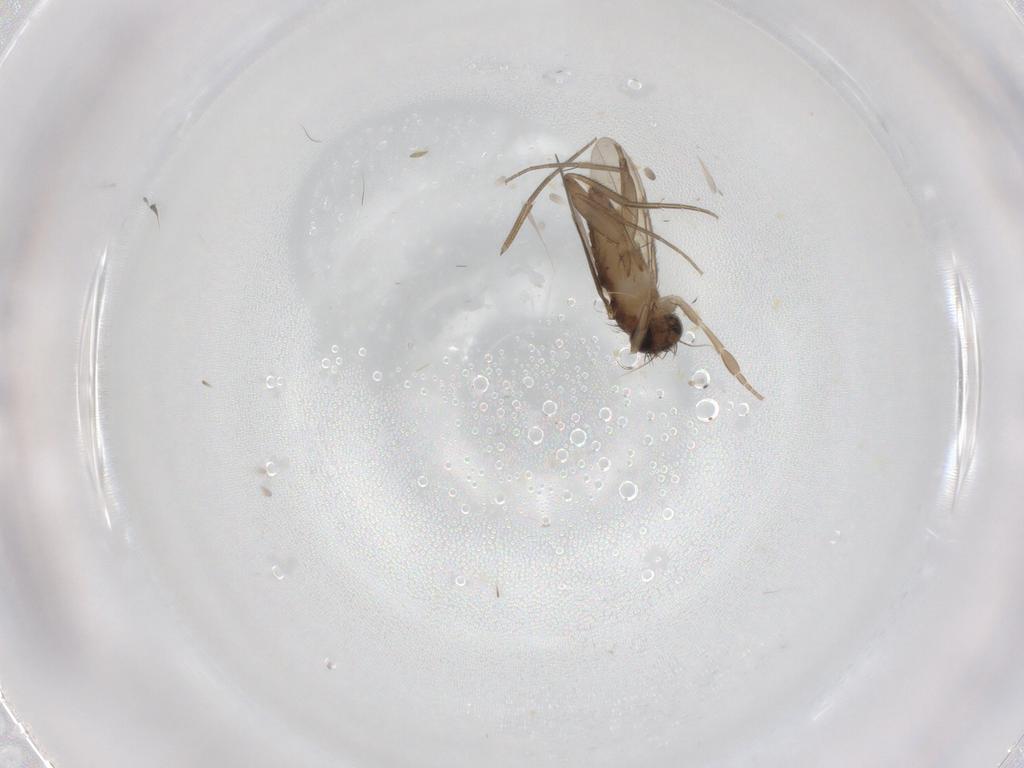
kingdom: Animalia
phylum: Arthropoda
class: Insecta
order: Diptera
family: Phoridae
